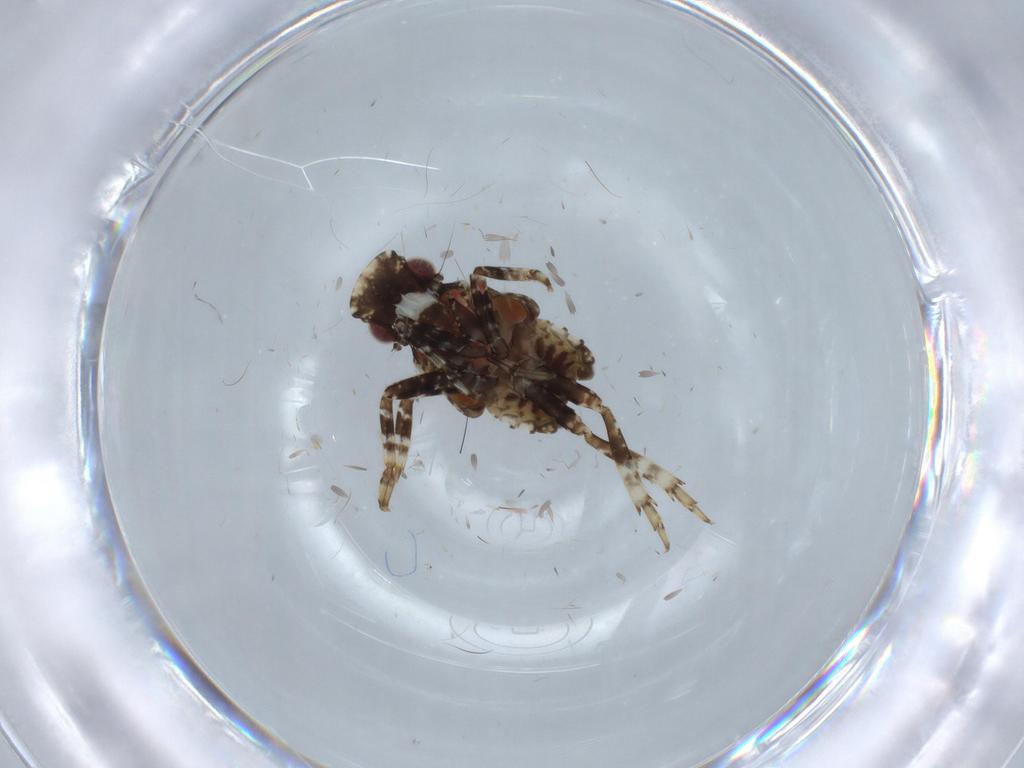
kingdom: Animalia
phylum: Arthropoda
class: Insecta
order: Hemiptera
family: Fulgoridae
